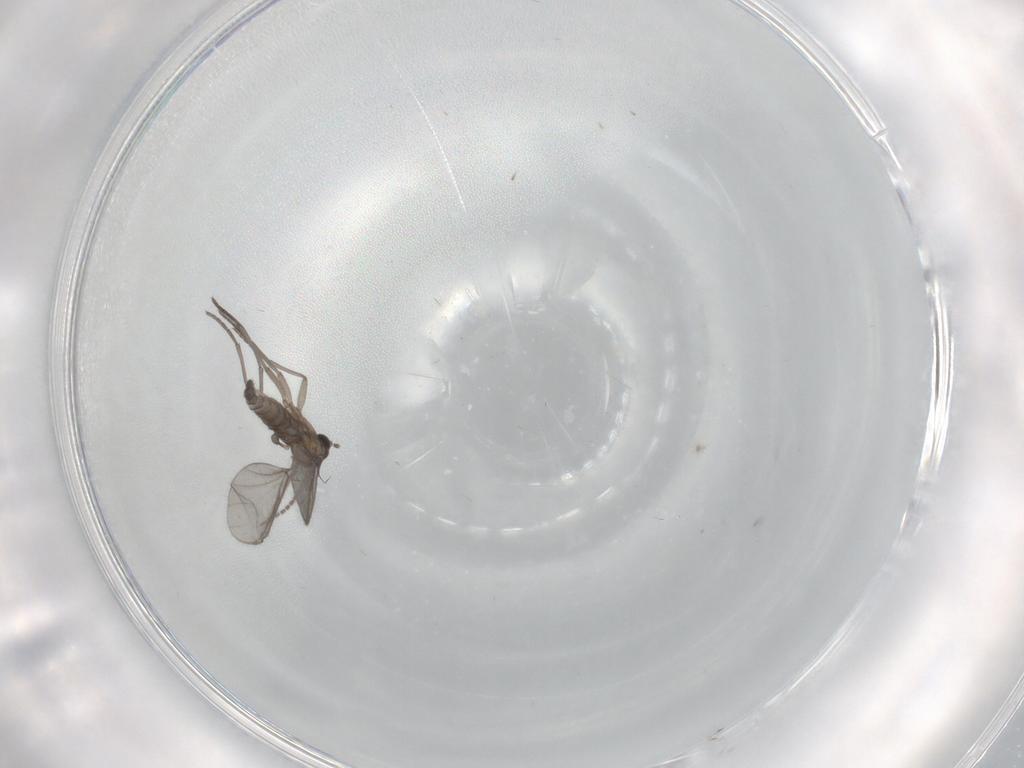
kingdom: Animalia
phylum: Arthropoda
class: Insecta
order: Diptera
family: Sciaridae
